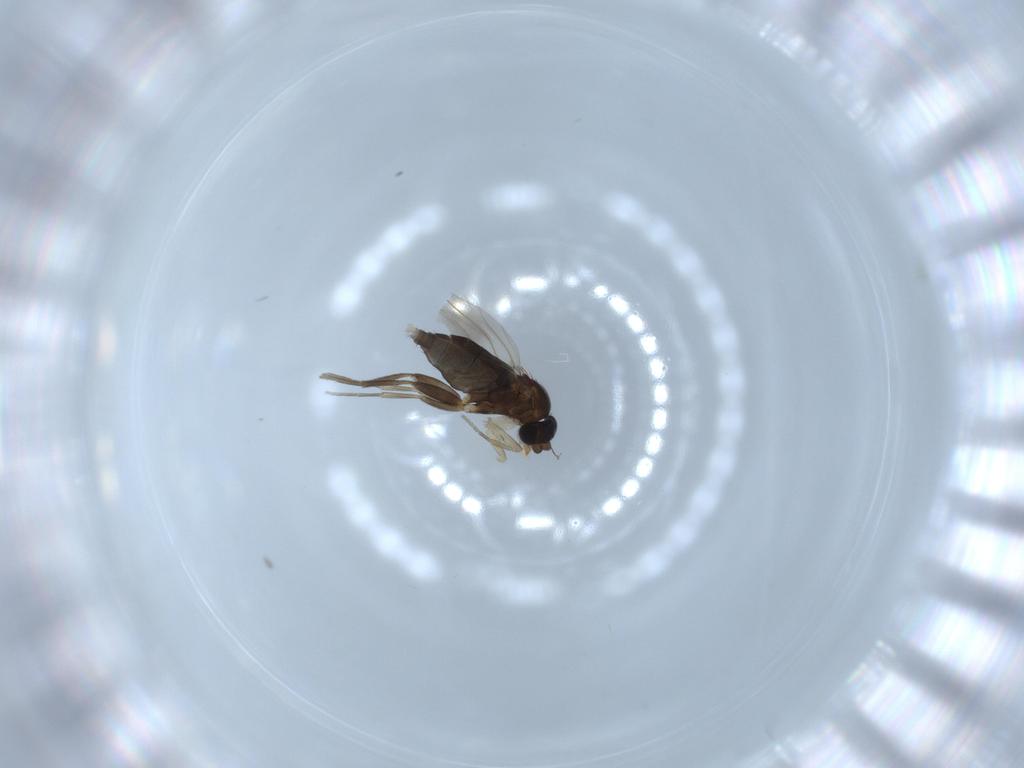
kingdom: Animalia
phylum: Arthropoda
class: Insecta
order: Diptera
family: Phoridae
